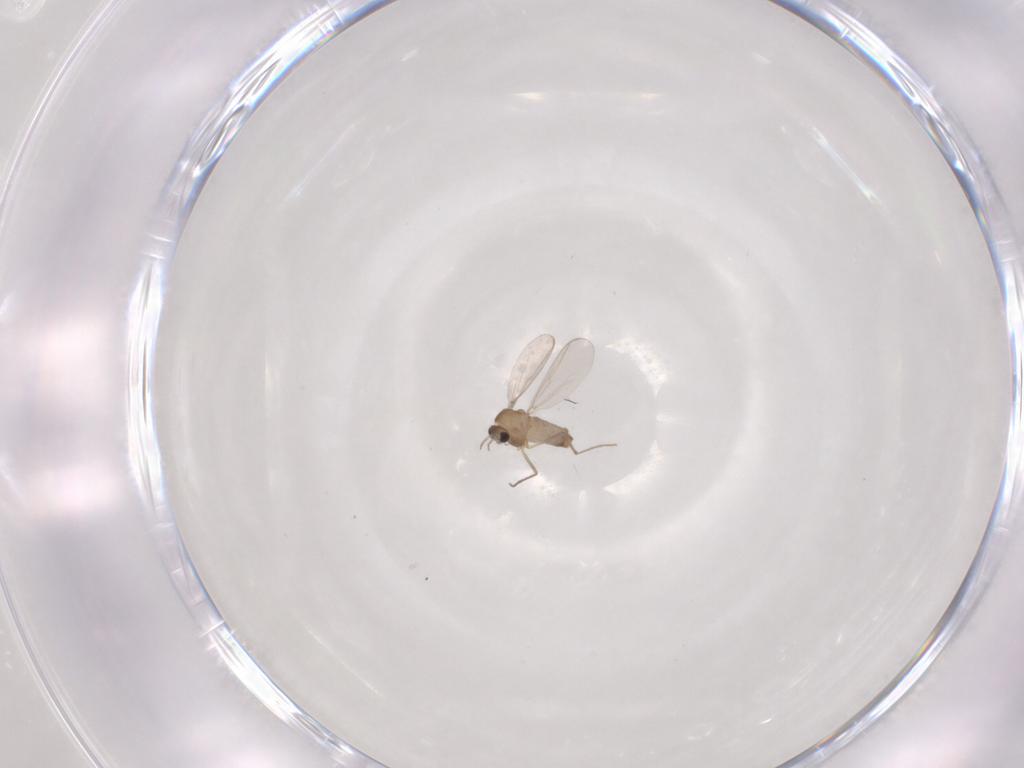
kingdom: Animalia
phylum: Arthropoda
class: Insecta
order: Diptera
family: Chironomidae
